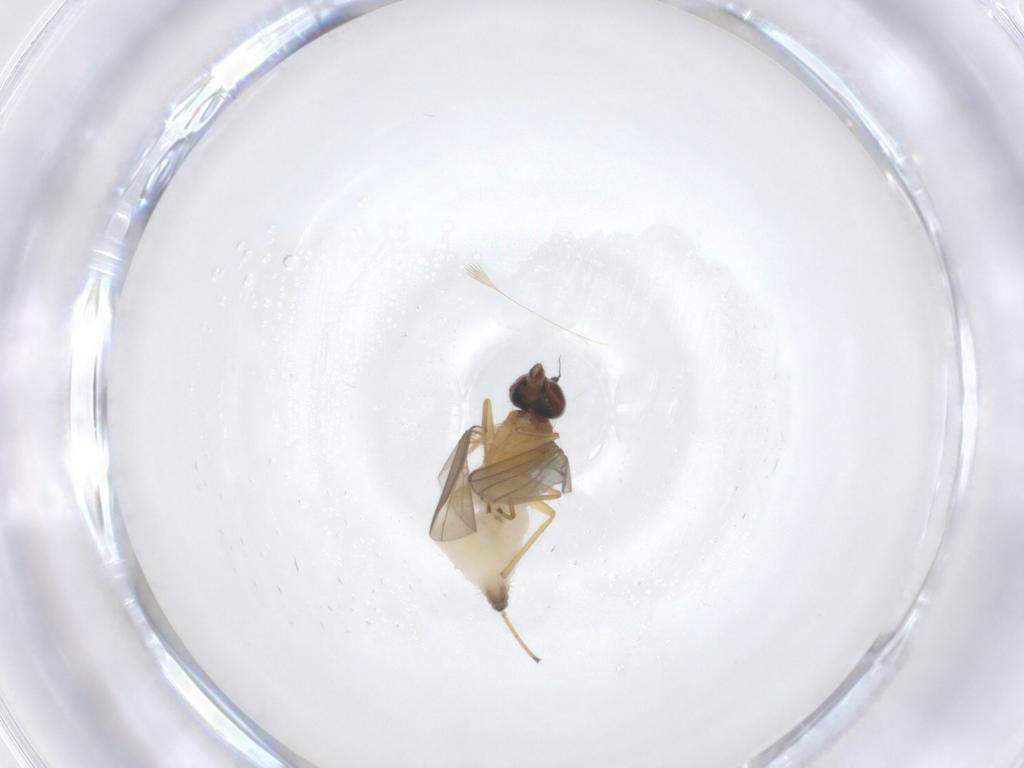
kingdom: Animalia
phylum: Arthropoda
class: Insecta
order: Diptera
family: Dolichopodidae
